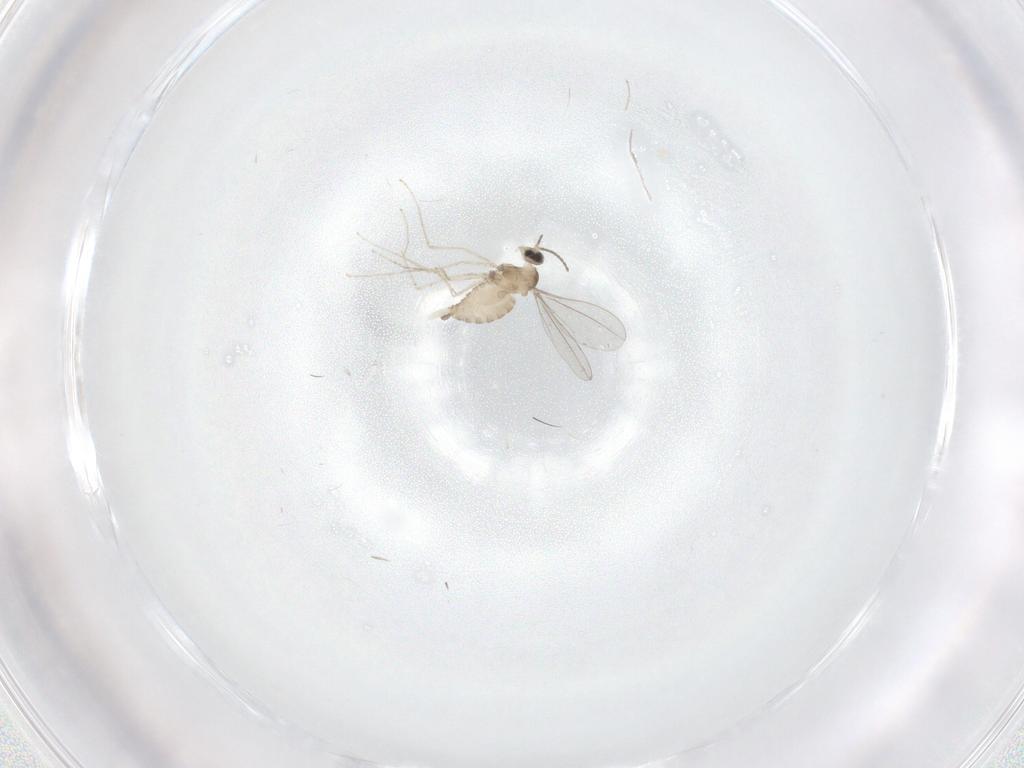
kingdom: Animalia
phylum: Arthropoda
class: Insecta
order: Diptera
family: Cecidomyiidae
